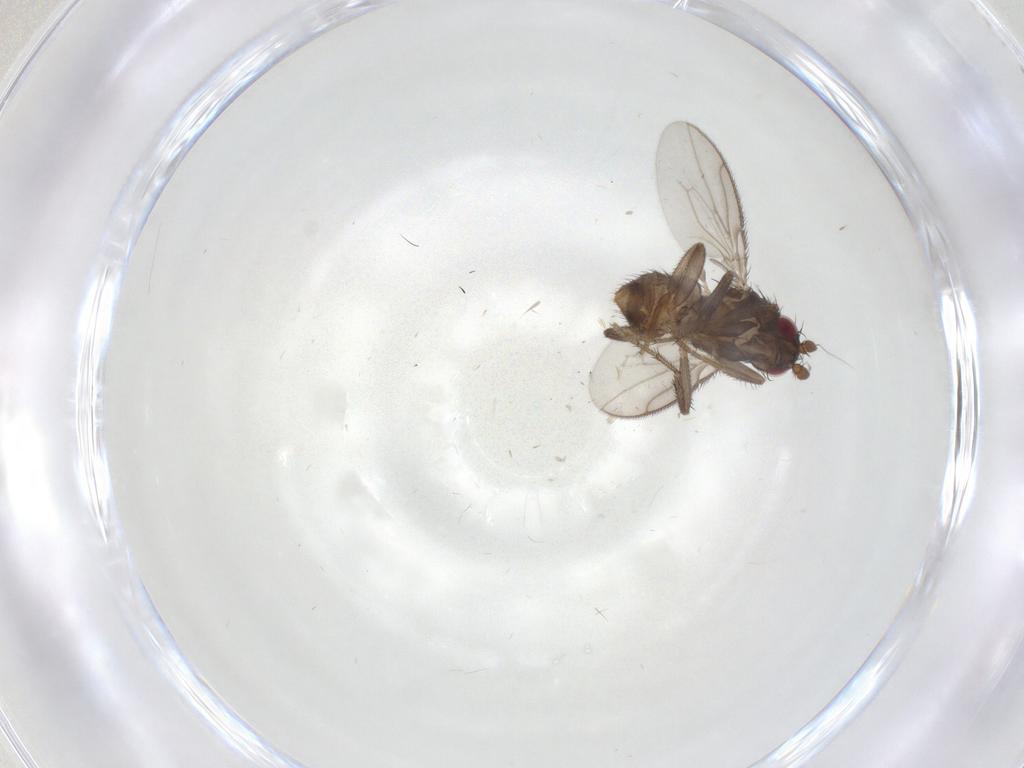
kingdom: Animalia
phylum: Arthropoda
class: Insecta
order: Diptera
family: Sphaeroceridae
